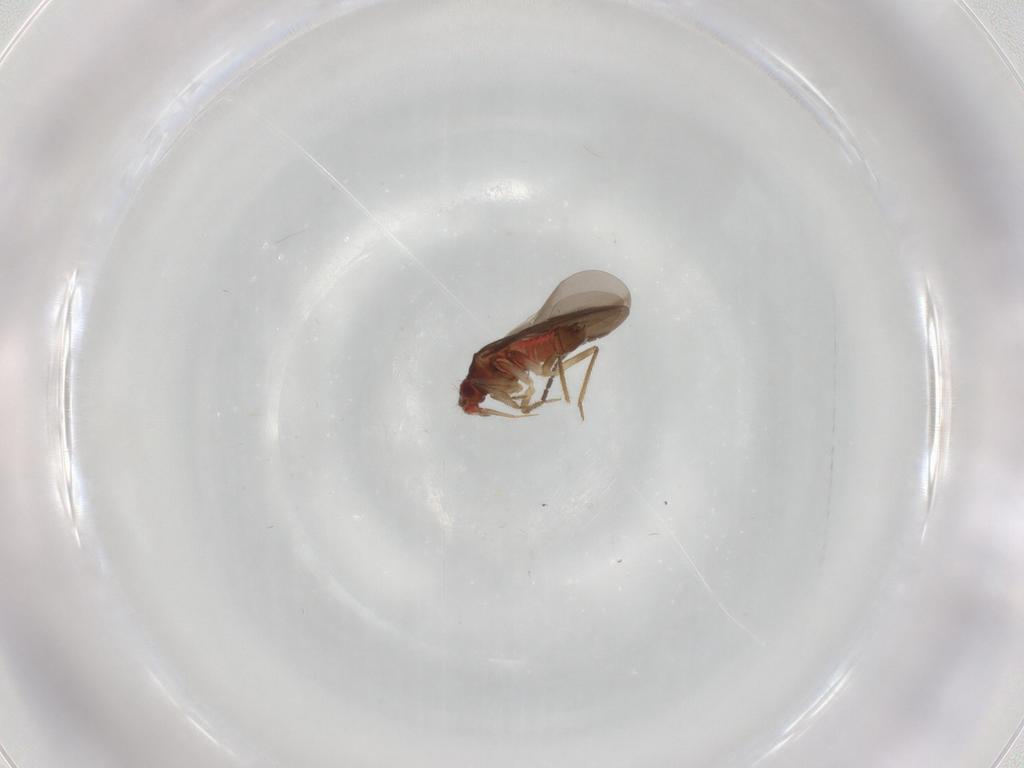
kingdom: Animalia
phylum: Arthropoda
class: Insecta
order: Hemiptera
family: Ceratocombidae
